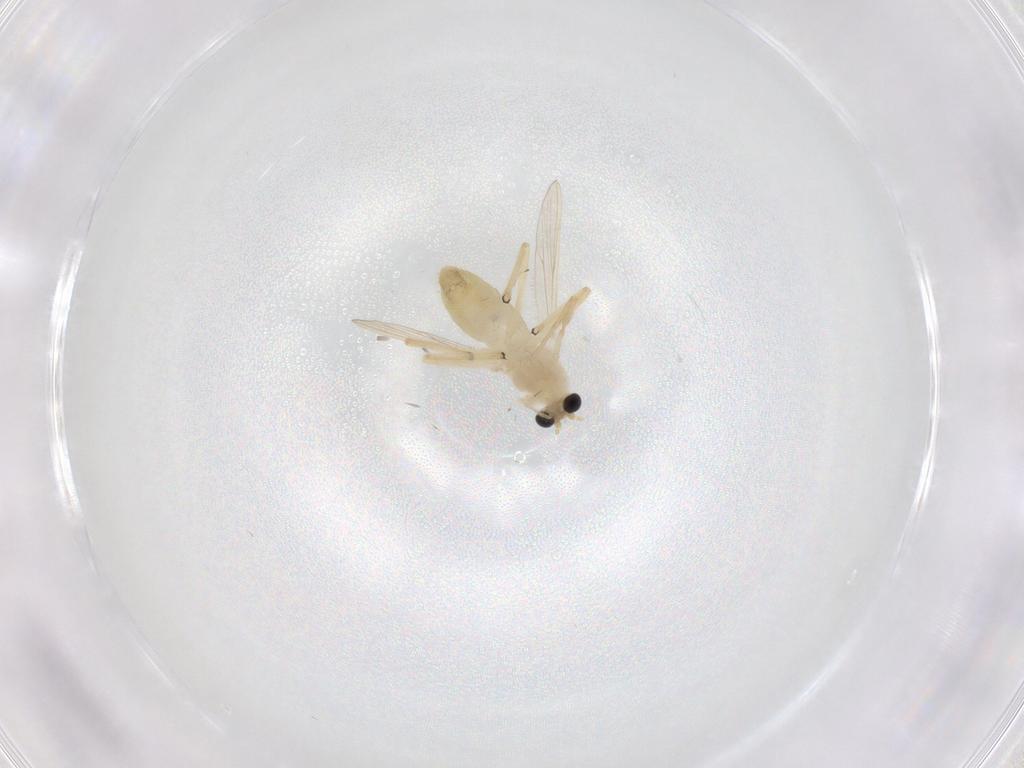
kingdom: Animalia
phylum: Arthropoda
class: Insecta
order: Diptera
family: Chironomidae
